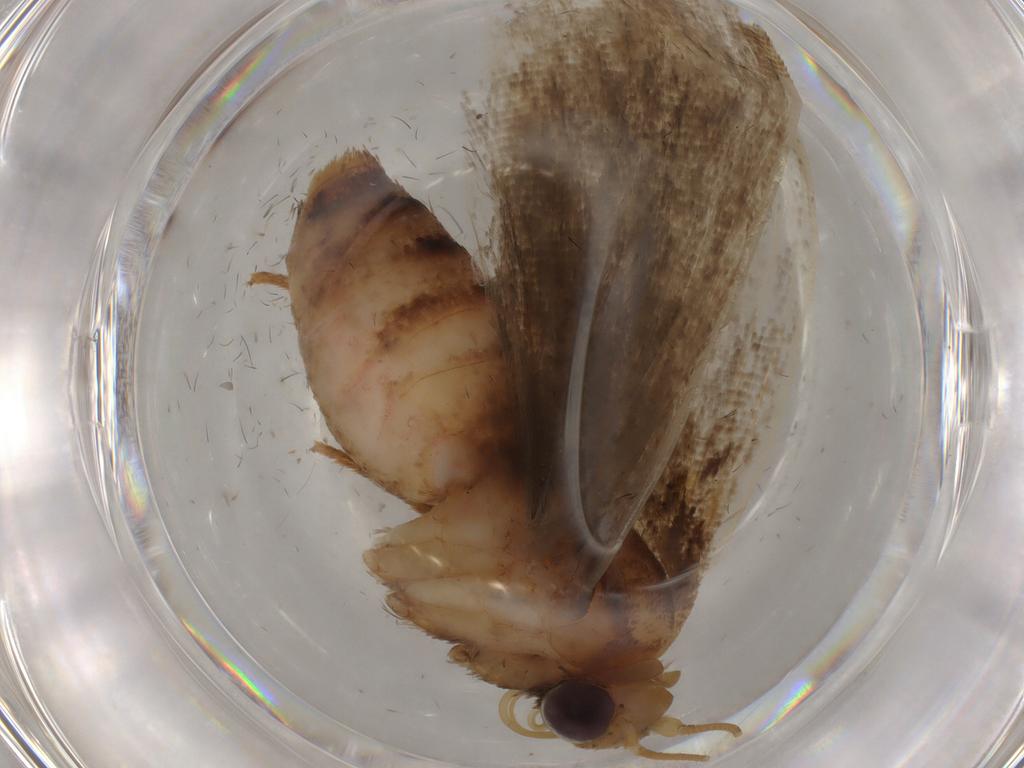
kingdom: Animalia
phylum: Arthropoda
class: Insecta
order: Lepidoptera
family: Erebidae
